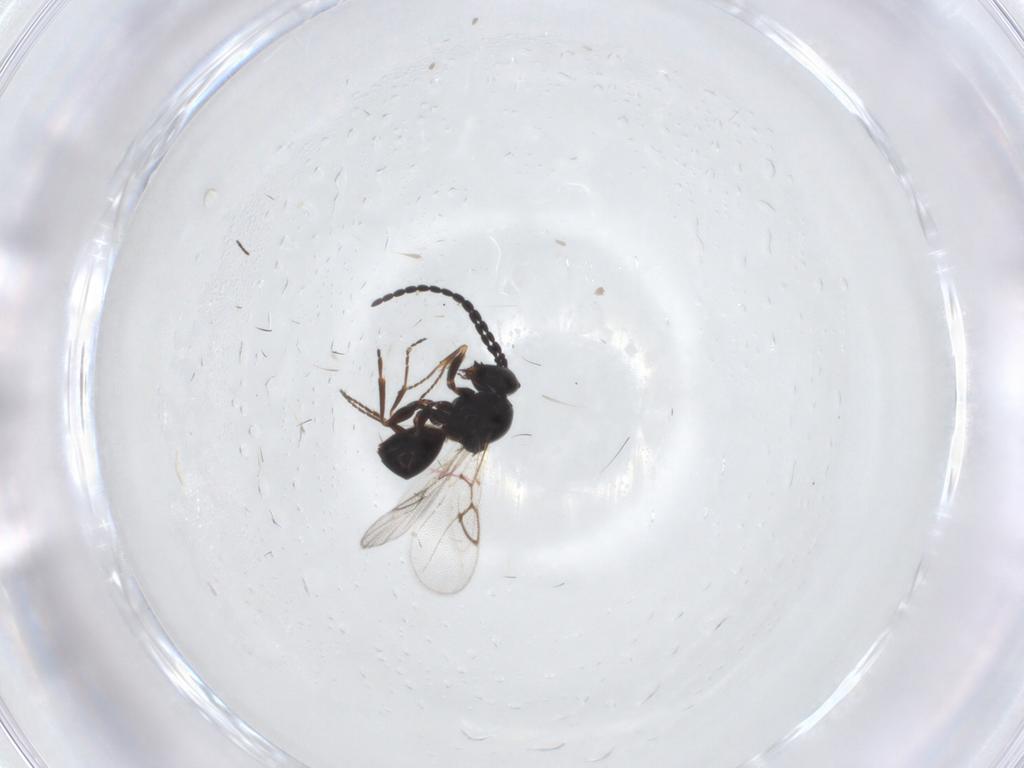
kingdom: Animalia
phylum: Arthropoda
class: Insecta
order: Hymenoptera
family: Figitidae
